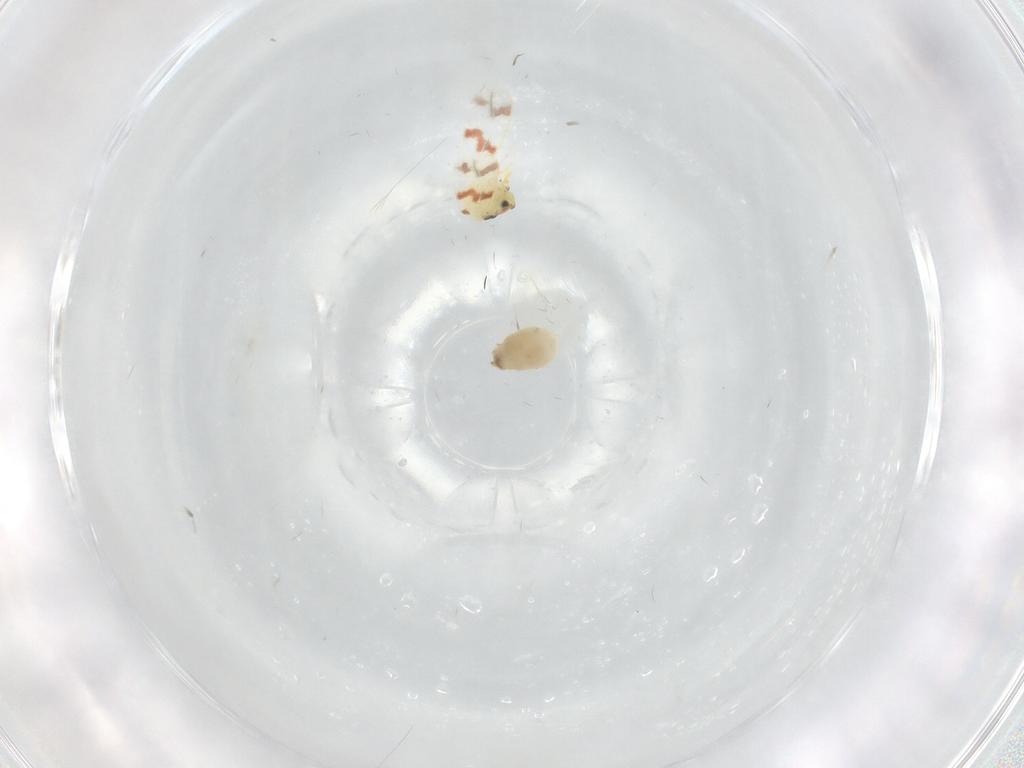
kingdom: Animalia
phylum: Arthropoda
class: Insecta
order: Hemiptera
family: Aleyrodidae
